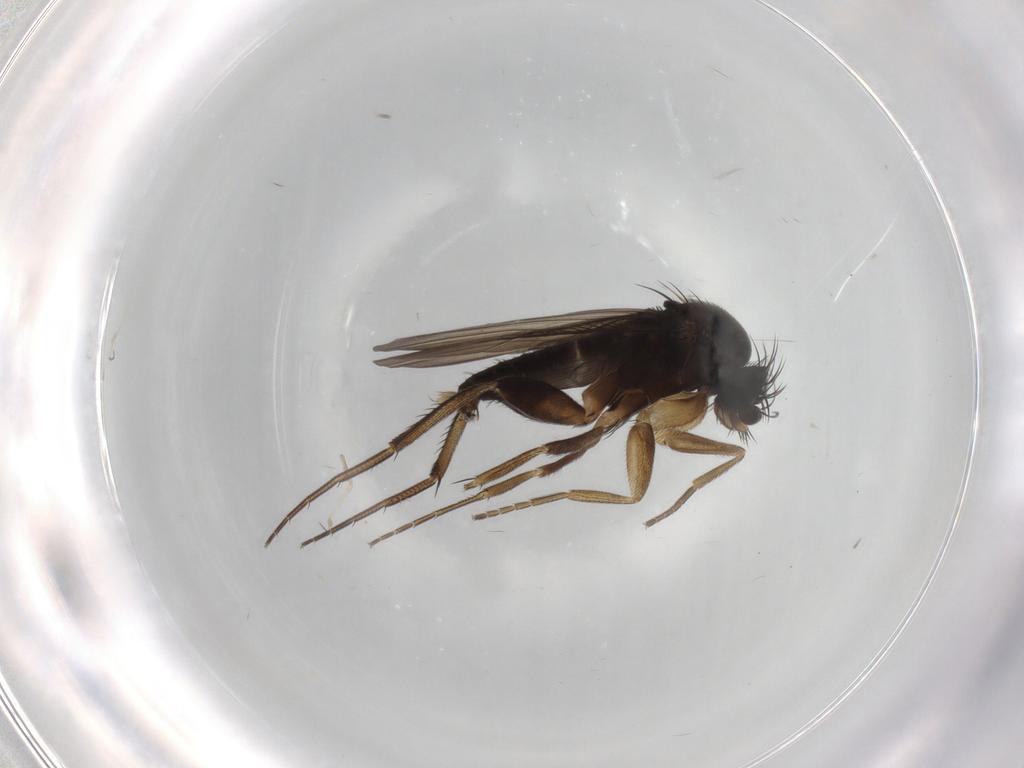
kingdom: Animalia
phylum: Arthropoda
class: Insecta
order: Diptera
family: Phoridae
